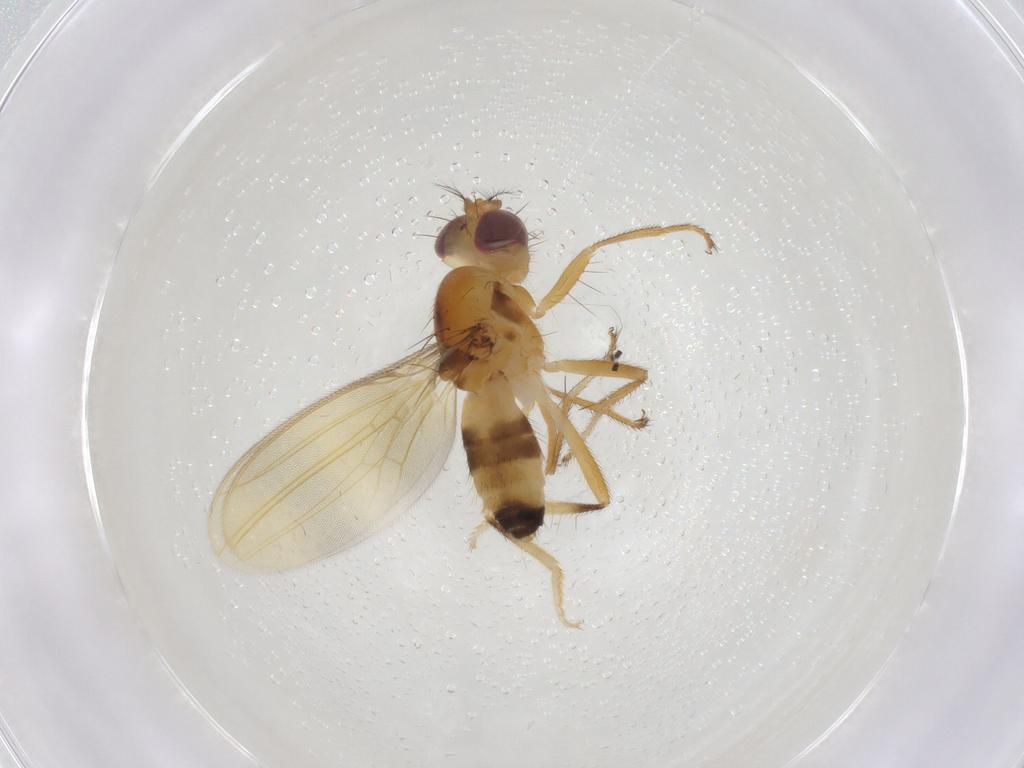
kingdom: Animalia
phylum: Arthropoda
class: Insecta
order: Diptera
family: Periscelididae
